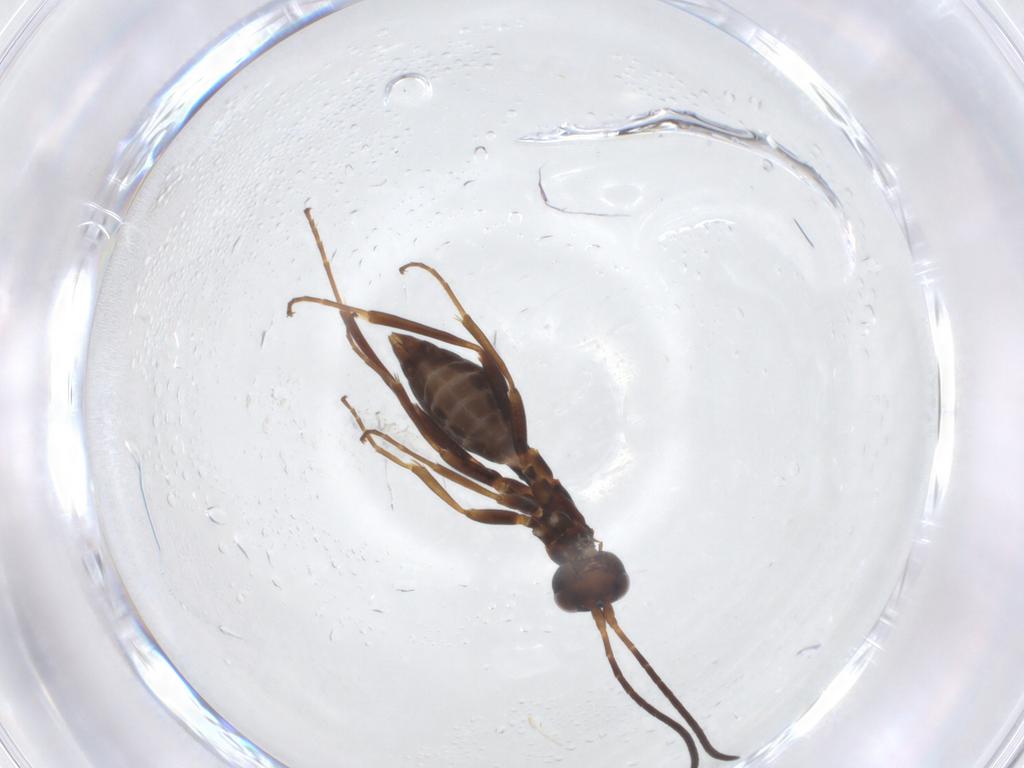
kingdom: Animalia
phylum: Arthropoda
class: Insecta
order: Hymenoptera
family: Ichneumonidae
